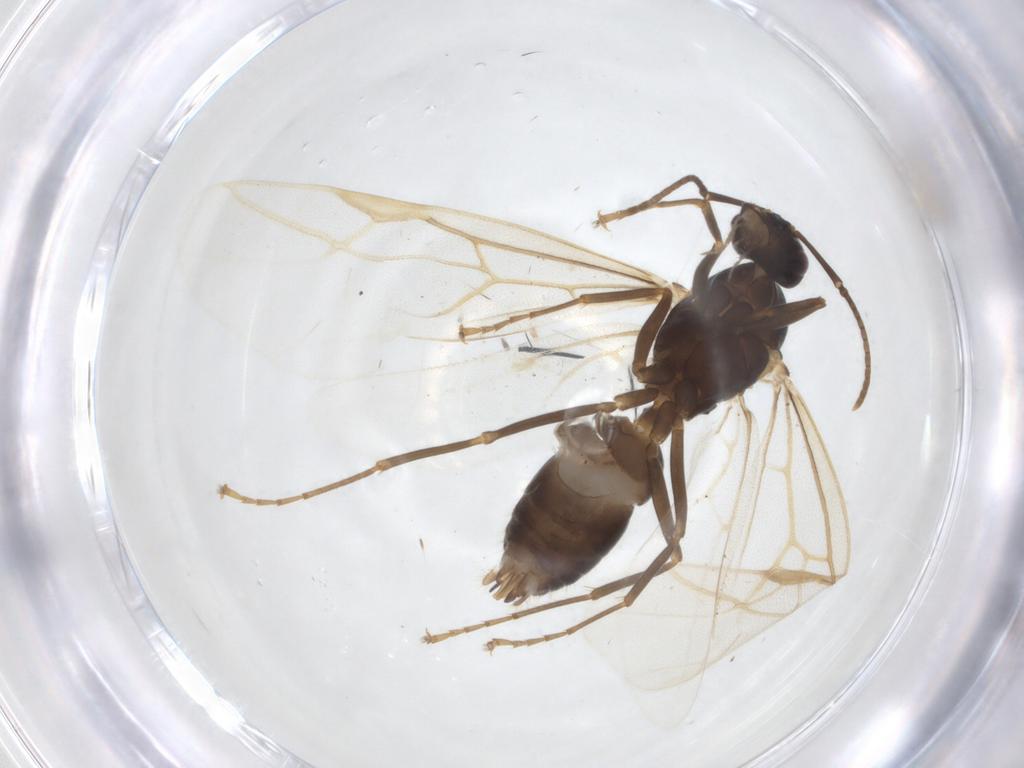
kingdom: Animalia
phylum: Arthropoda
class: Insecta
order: Hymenoptera
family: Formicidae
